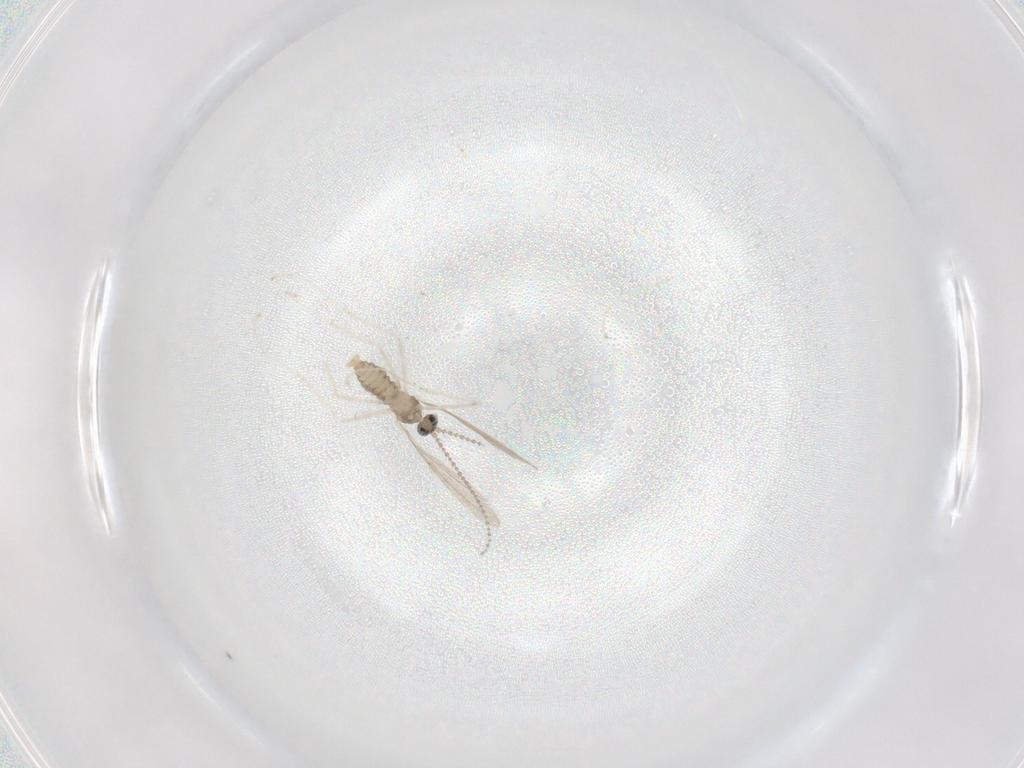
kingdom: Animalia
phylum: Arthropoda
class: Insecta
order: Diptera
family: Cecidomyiidae
